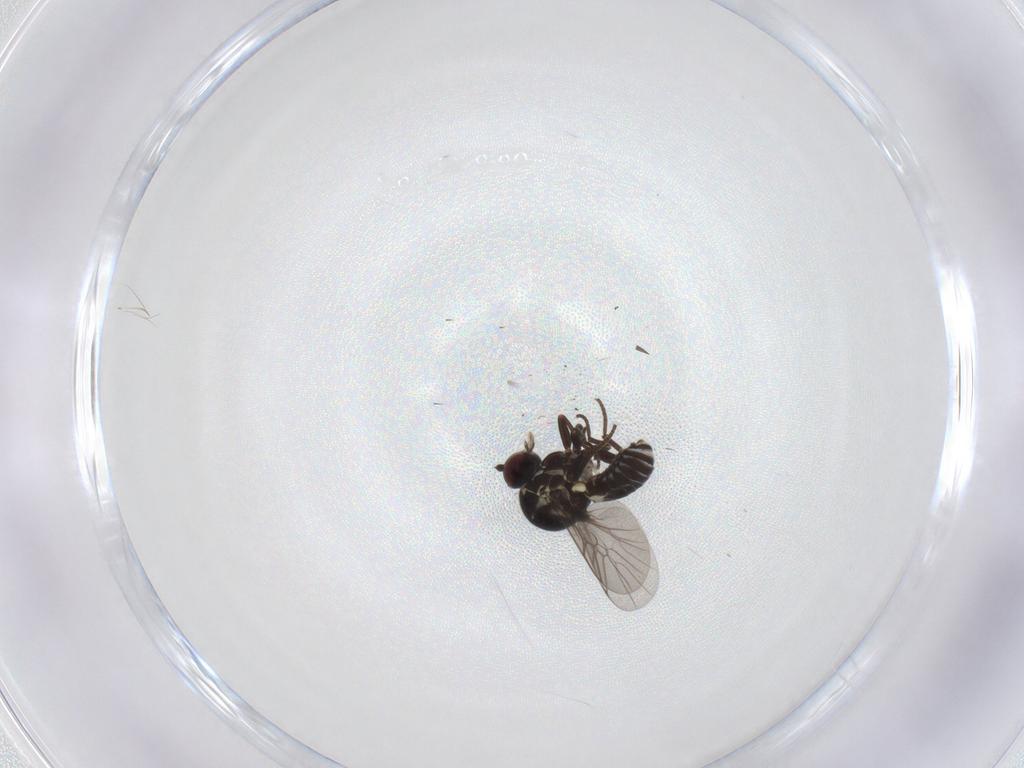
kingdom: Animalia
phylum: Arthropoda
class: Insecta
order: Diptera
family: Bombyliidae
